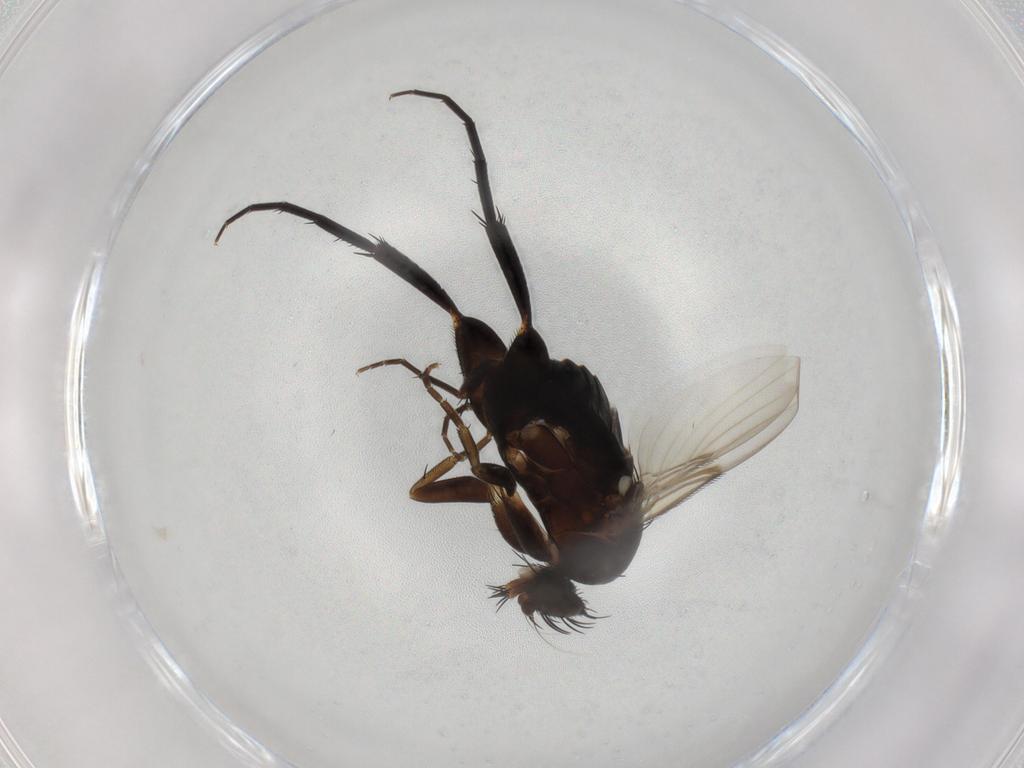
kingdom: Animalia
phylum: Arthropoda
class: Insecta
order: Diptera
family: Phoridae
